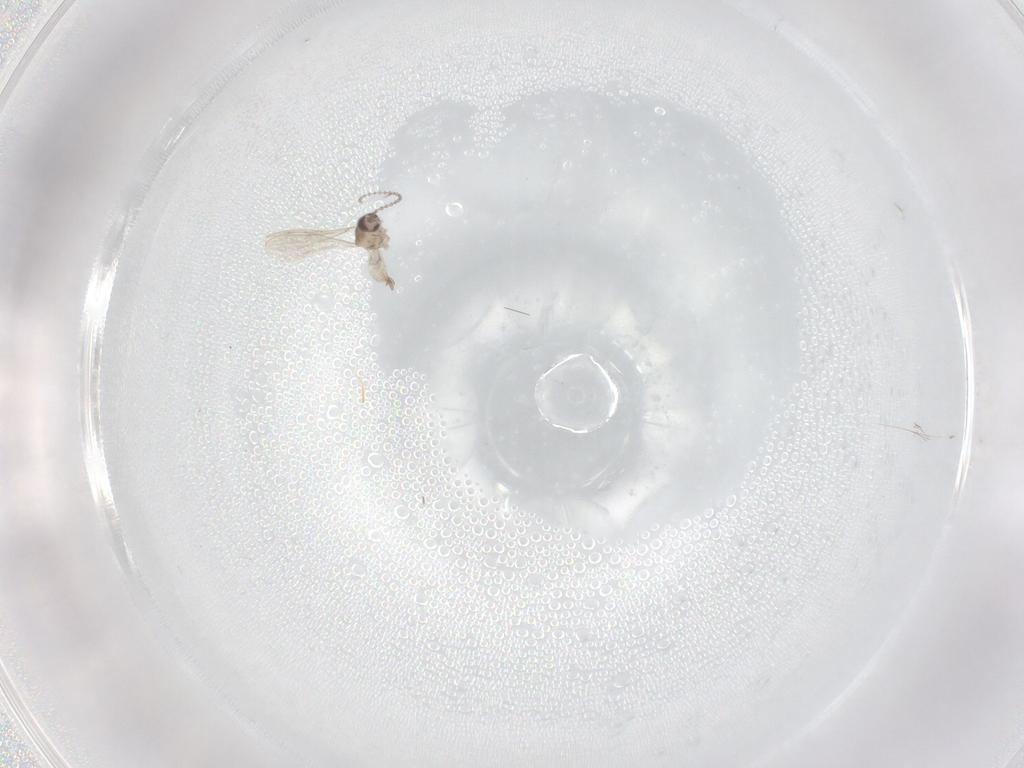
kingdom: Animalia
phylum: Arthropoda
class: Insecta
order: Diptera
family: Cecidomyiidae
